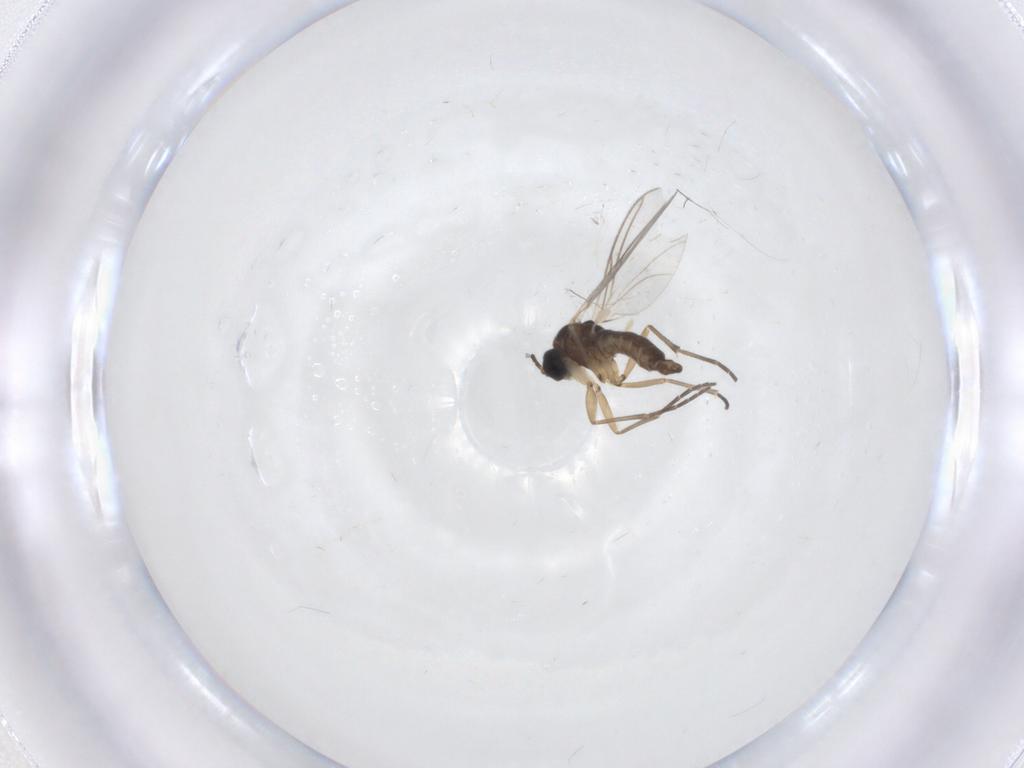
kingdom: Animalia
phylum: Arthropoda
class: Insecta
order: Diptera
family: Sciaridae
